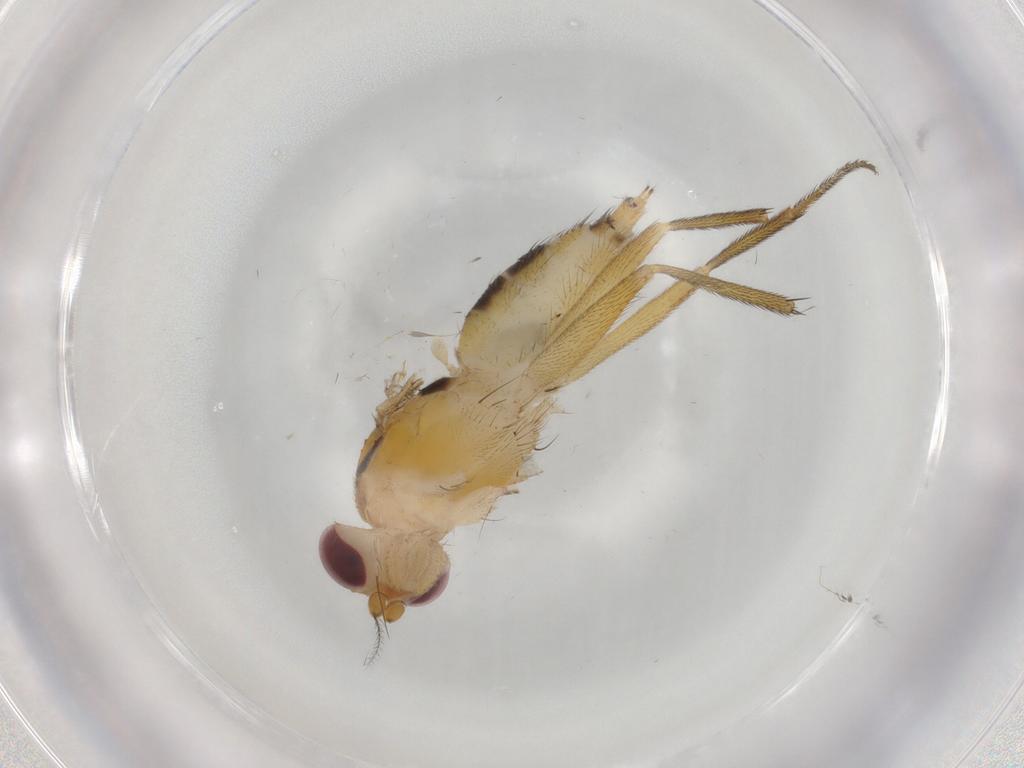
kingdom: Animalia
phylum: Arthropoda
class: Insecta
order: Diptera
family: Clusiidae
